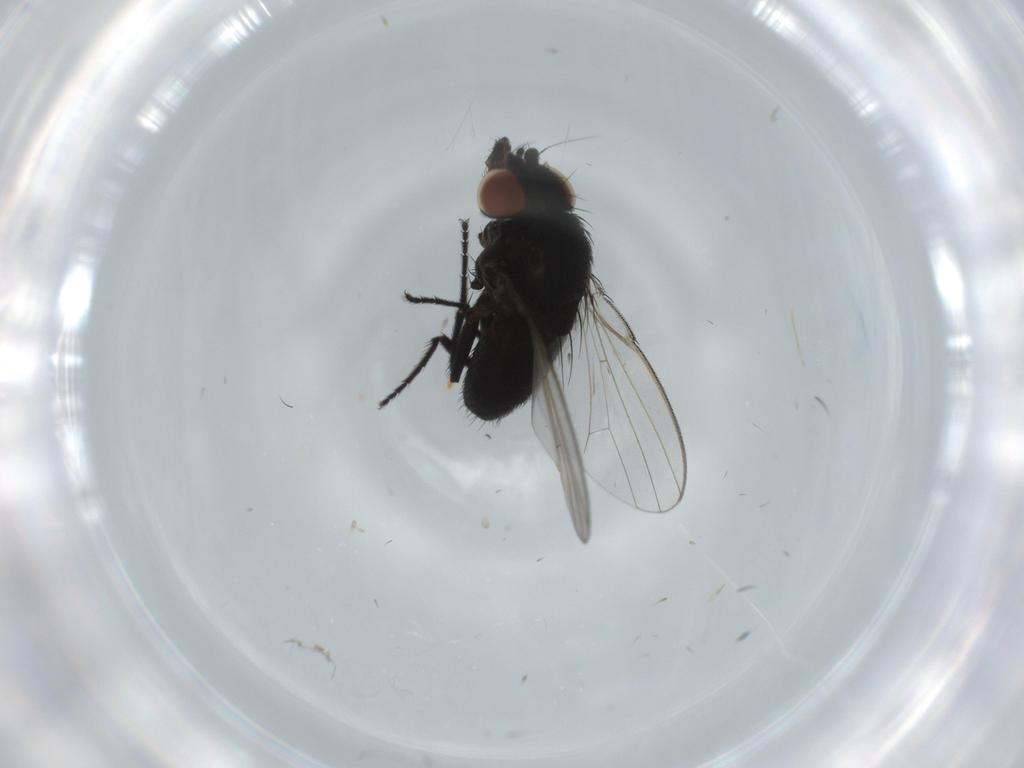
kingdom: Animalia
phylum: Arthropoda
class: Insecta
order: Diptera
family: Milichiidae
